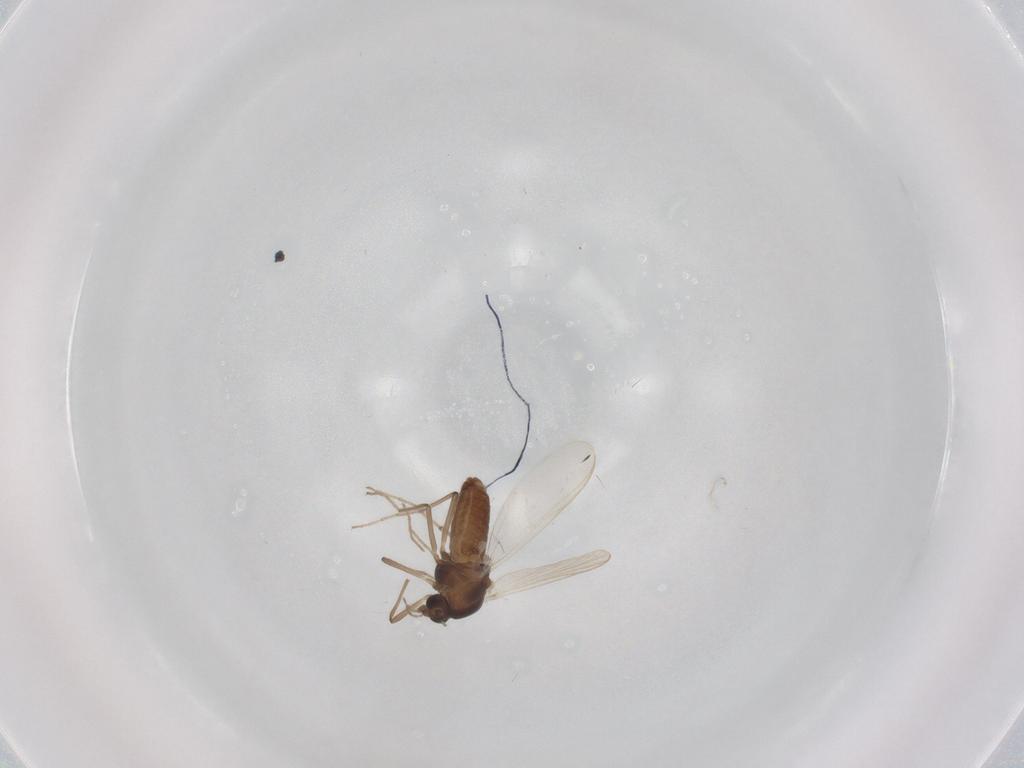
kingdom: Animalia
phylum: Arthropoda
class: Insecta
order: Diptera
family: Chironomidae
